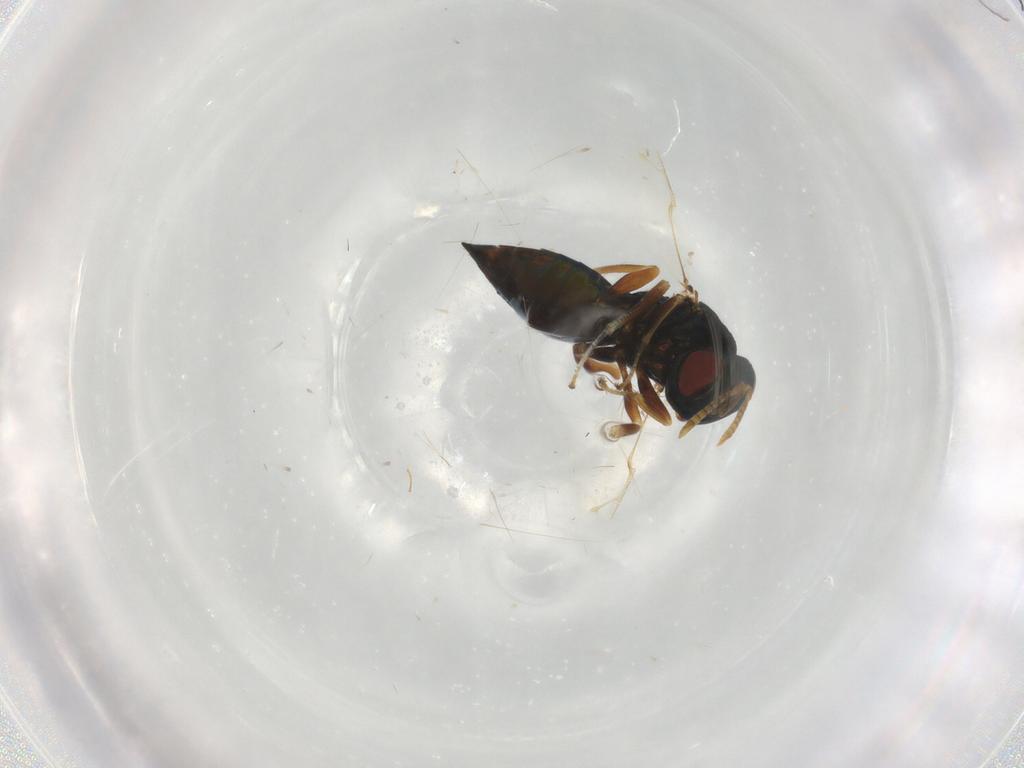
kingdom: Animalia
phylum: Arthropoda
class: Insecta
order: Hymenoptera
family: Pteromalidae
